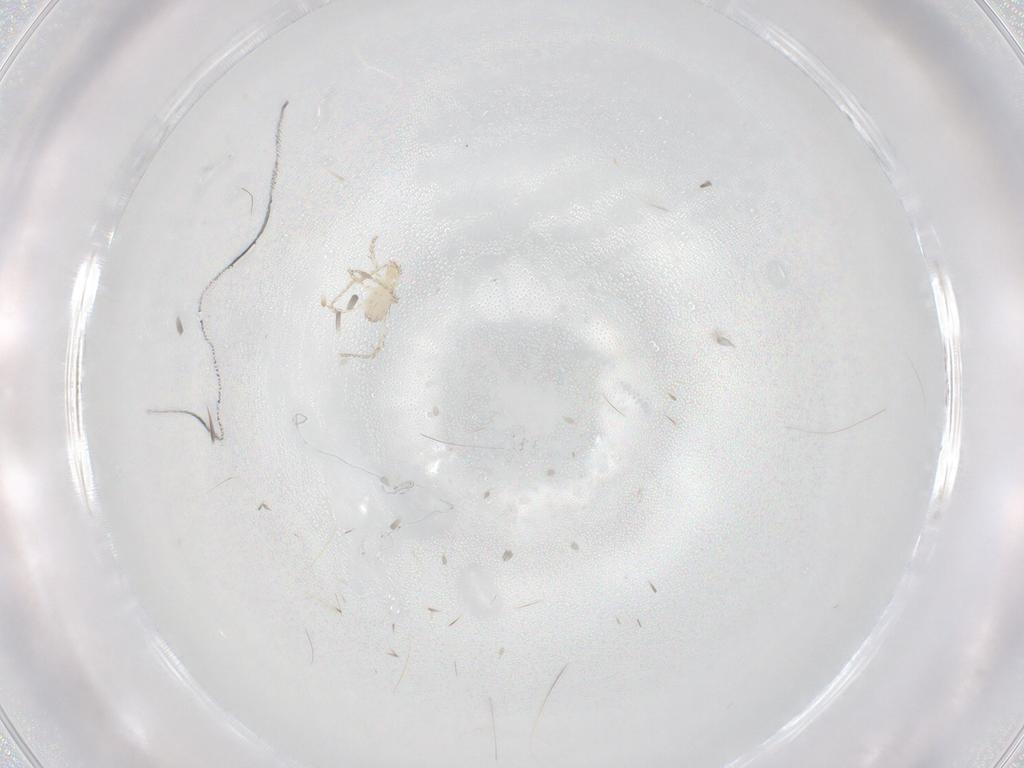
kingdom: Animalia
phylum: Arthropoda
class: Arachnida
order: Trombidiformes
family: Erythraeidae
